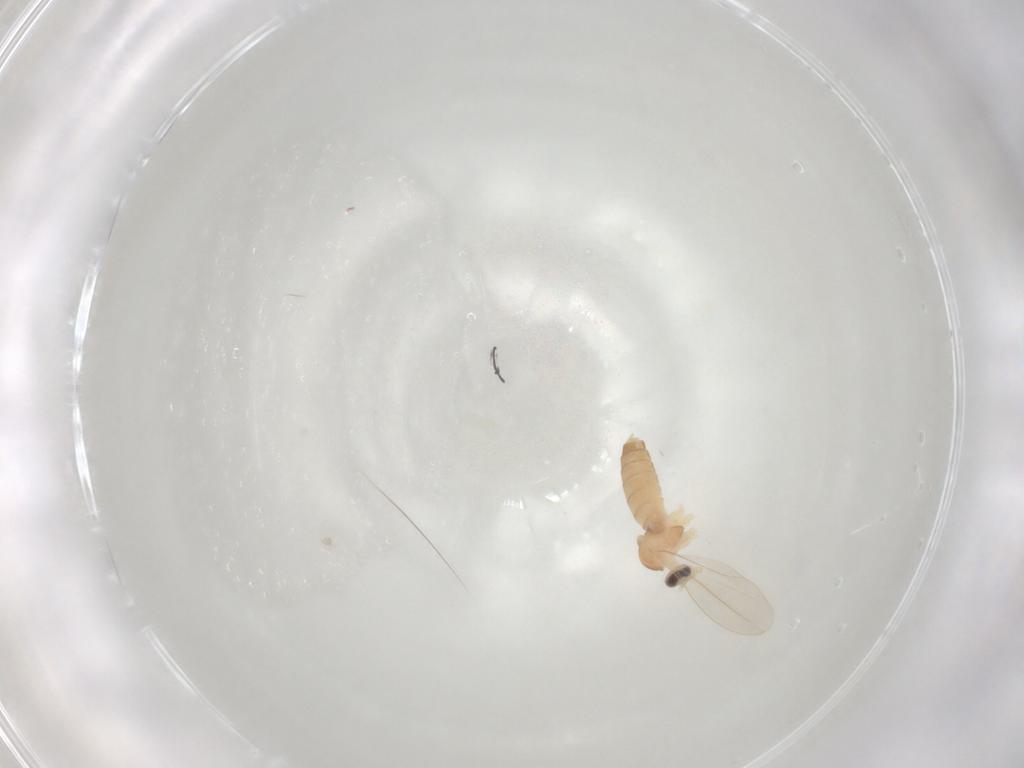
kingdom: Animalia
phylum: Arthropoda
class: Insecta
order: Diptera
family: Cecidomyiidae
